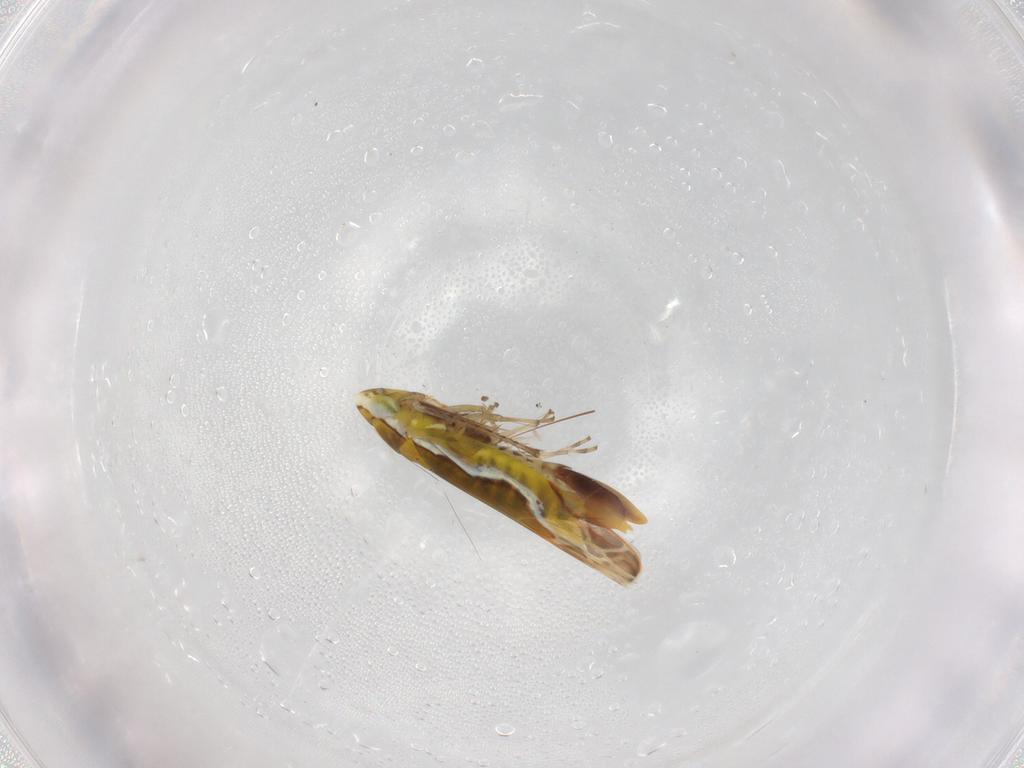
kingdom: Animalia
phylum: Arthropoda
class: Insecta
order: Hemiptera
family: Cicadellidae
